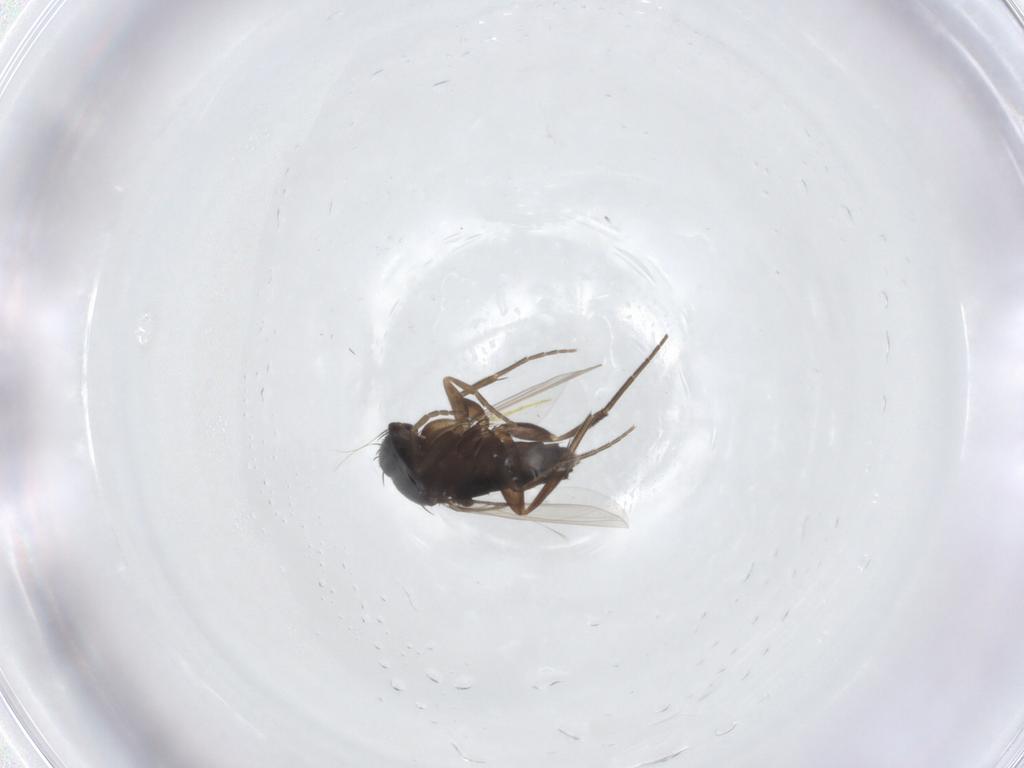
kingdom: Animalia
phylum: Arthropoda
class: Insecta
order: Diptera
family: Phoridae
